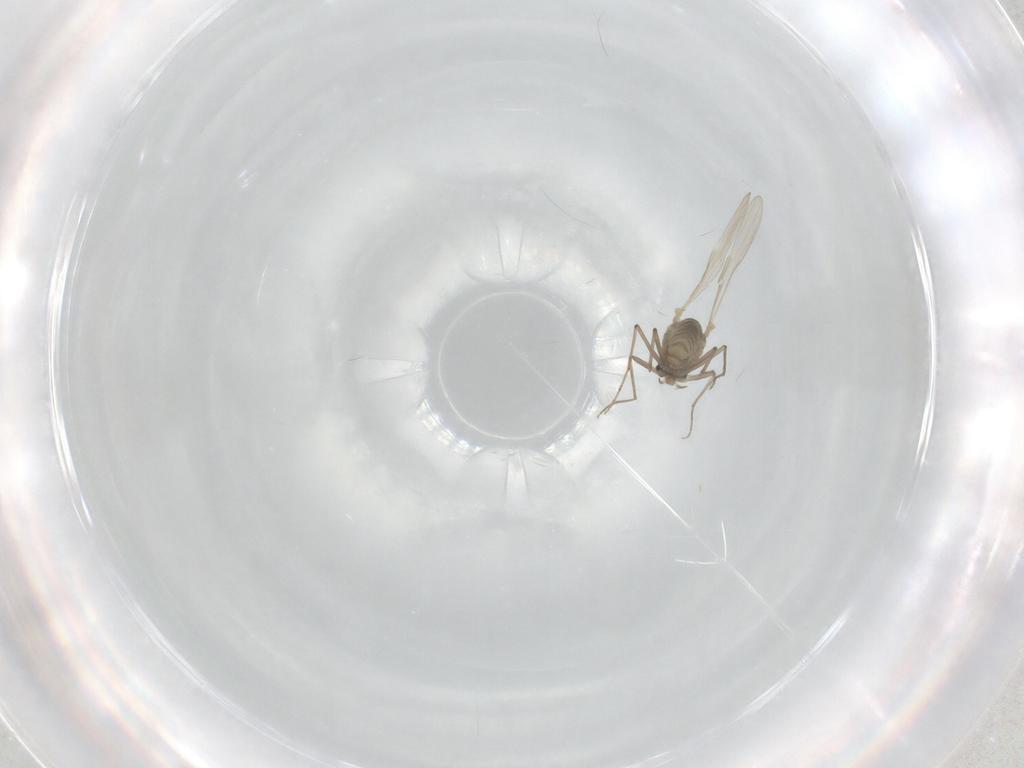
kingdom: Animalia
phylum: Arthropoda
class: Insecta
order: Diptera
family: Chironomidae
